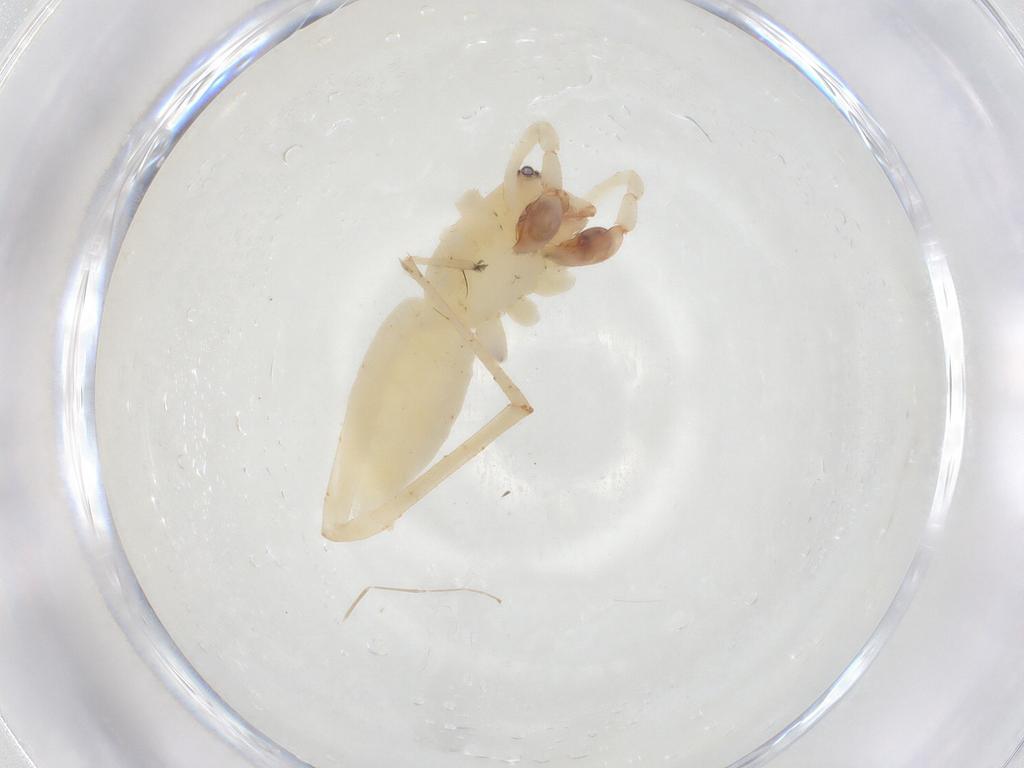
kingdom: Animalia
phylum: Arthropoda
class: Arachnida
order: Araneae
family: Anyphaenidae
